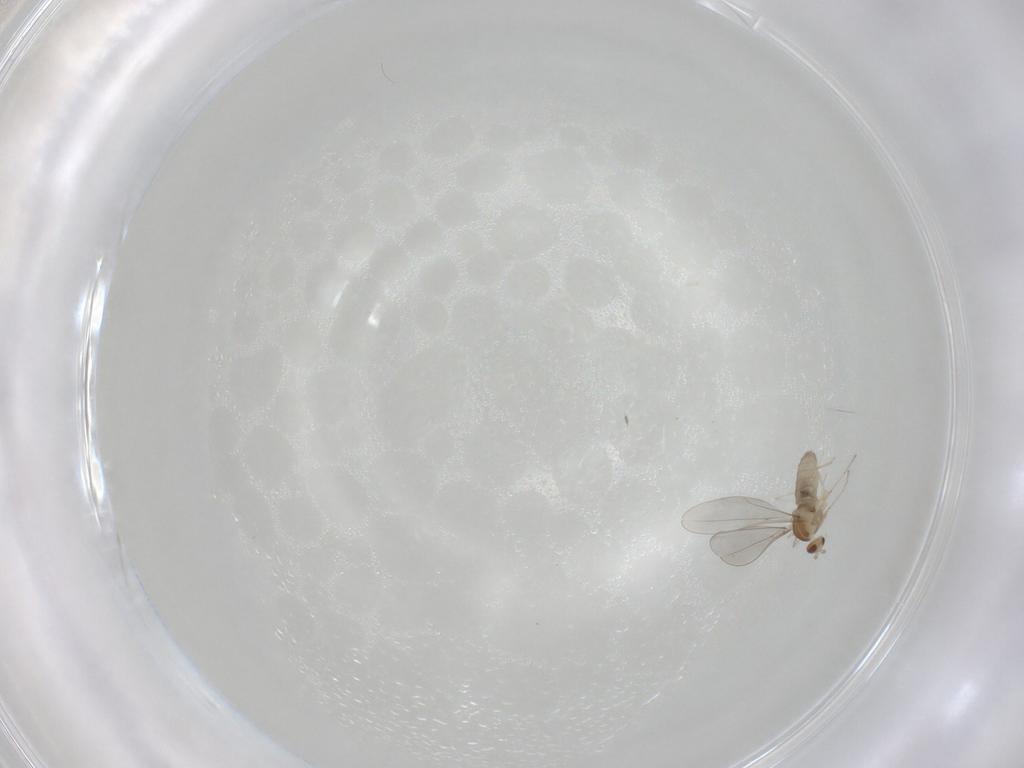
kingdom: Animalia
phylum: Arthropoda
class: Insecta
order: Diptera
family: Cecidomyiidae
